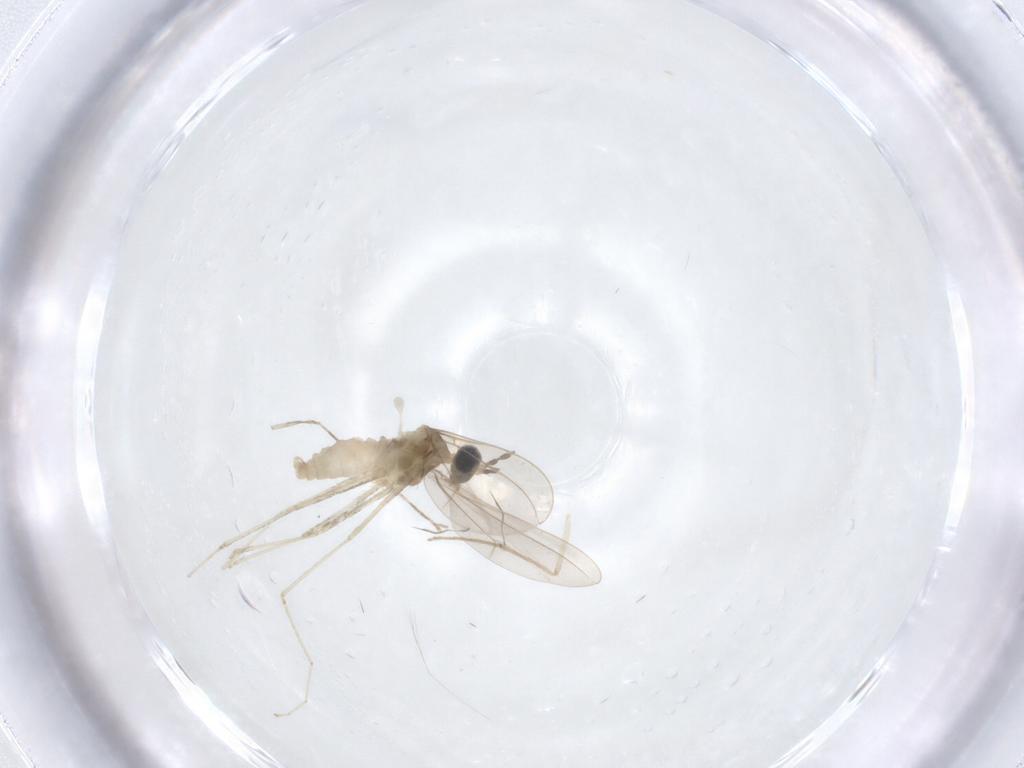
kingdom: Animalia
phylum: Arthropoda
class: Insecta
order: Diptera
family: Cecidomyiidae
